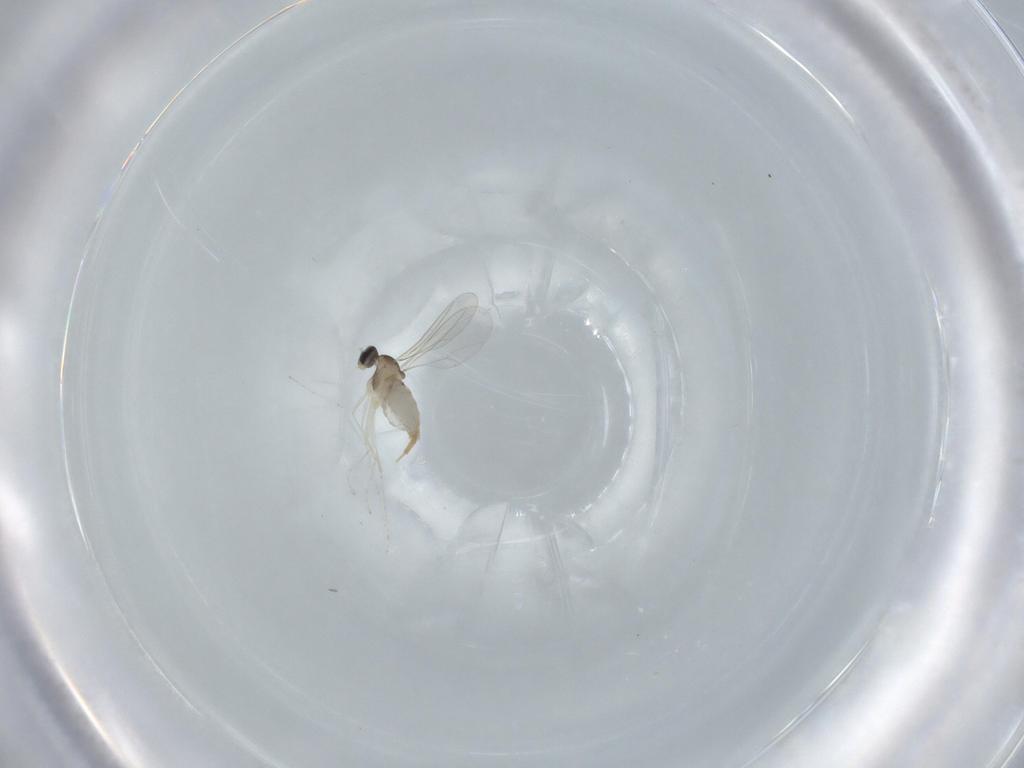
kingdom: Animalia
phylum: Arthropoda
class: Insecta
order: Diptera
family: Cecidomyiidae
